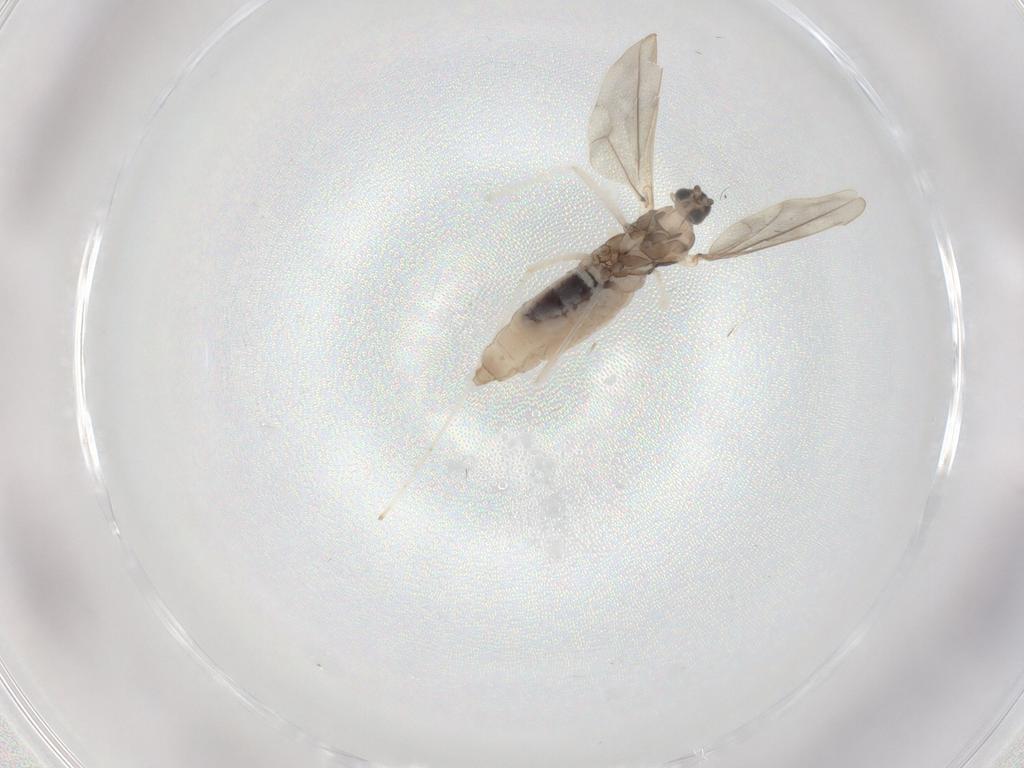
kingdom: Animalia
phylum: Arthropoda
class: Insecta
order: Diptera
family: Cecidomyiidae
